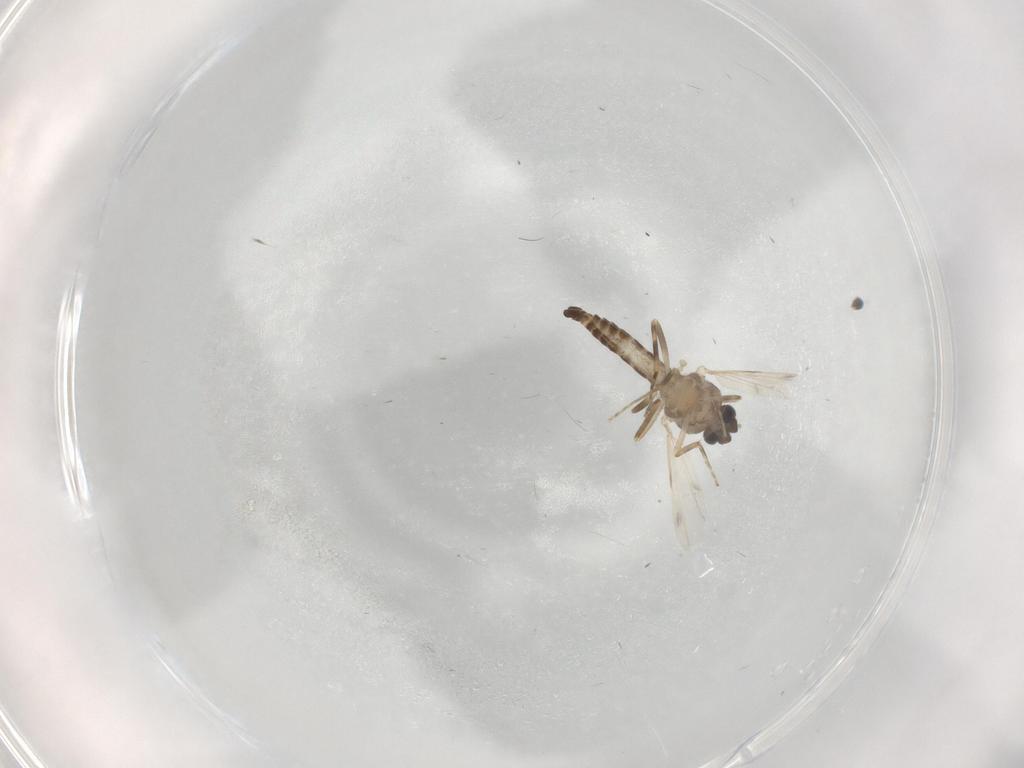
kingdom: Animalia
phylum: Arthropoda
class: Insecta
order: Diptera
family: Ceratopogonidae
